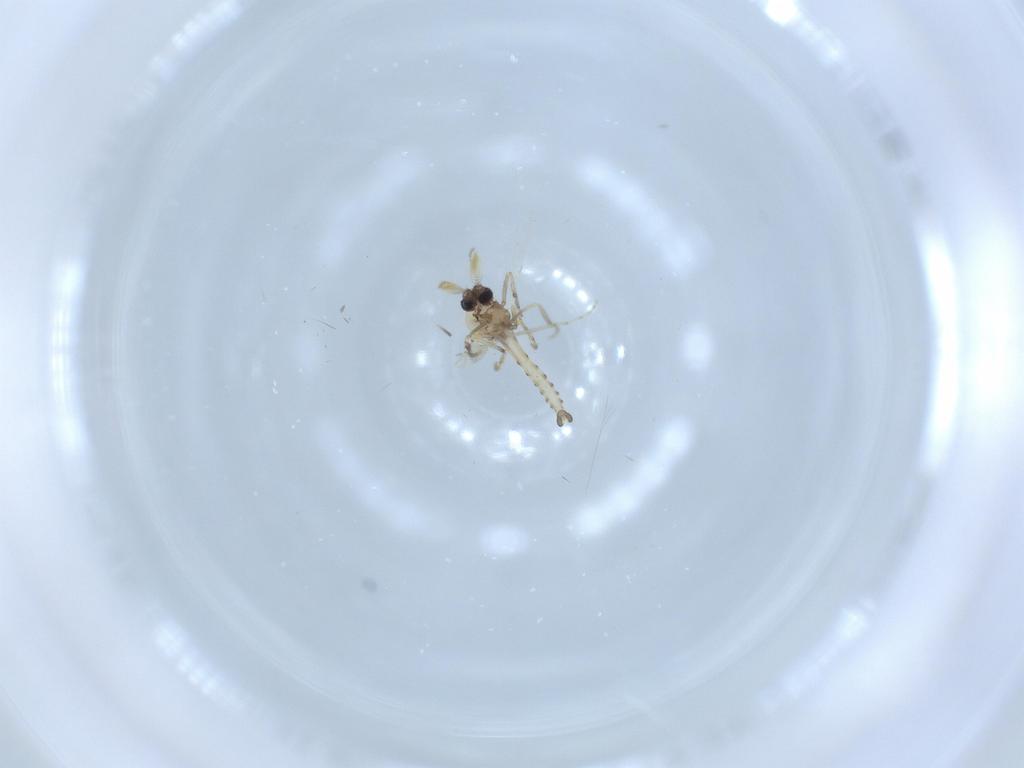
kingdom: Animalia
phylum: Arthropoda
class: Insecta
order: Diptera
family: Ceratopogonidae
